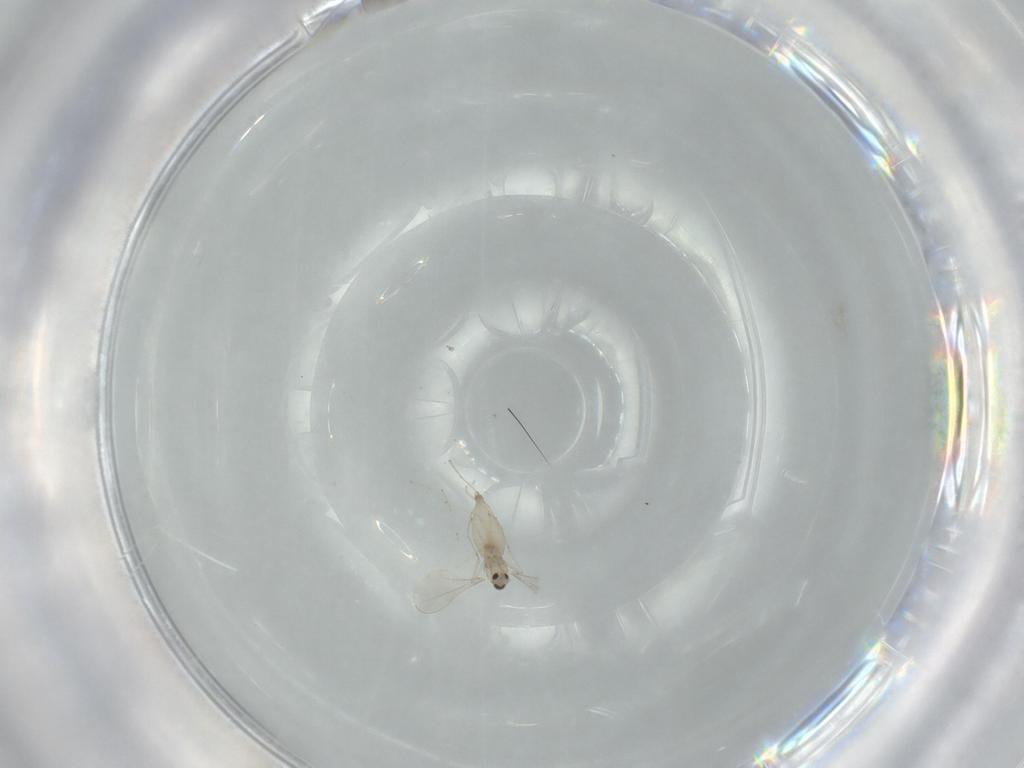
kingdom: Animalia
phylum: Arthropoda
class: Insecta
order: Diptera
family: Cecidomyiidae
